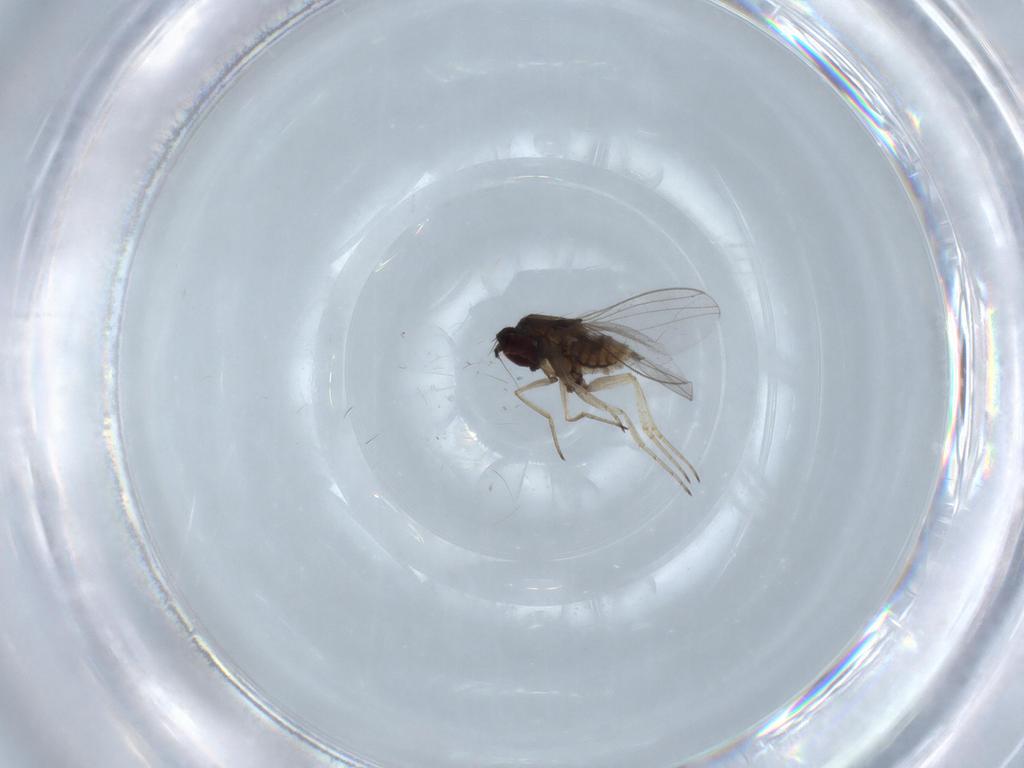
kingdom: Animalia
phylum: Arthropoda
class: Insecta
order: Diptera
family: Dolichopodidae
